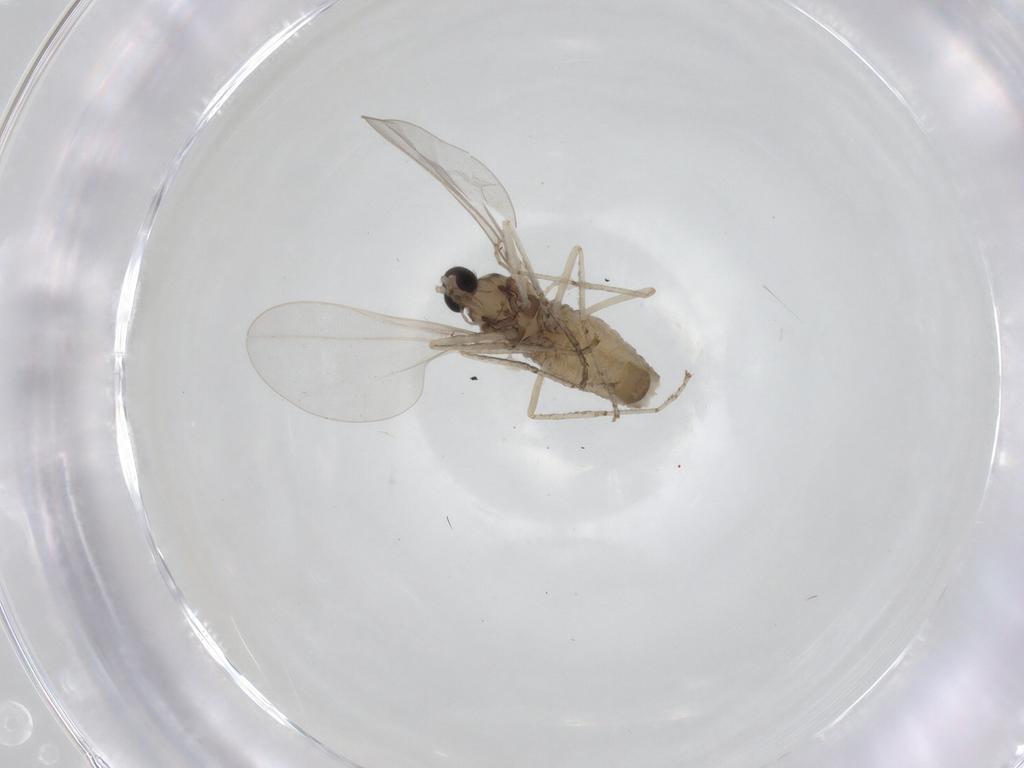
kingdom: Animalia
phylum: Arthropoda
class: Insecta
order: Diptera
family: Cecidomyiidae
